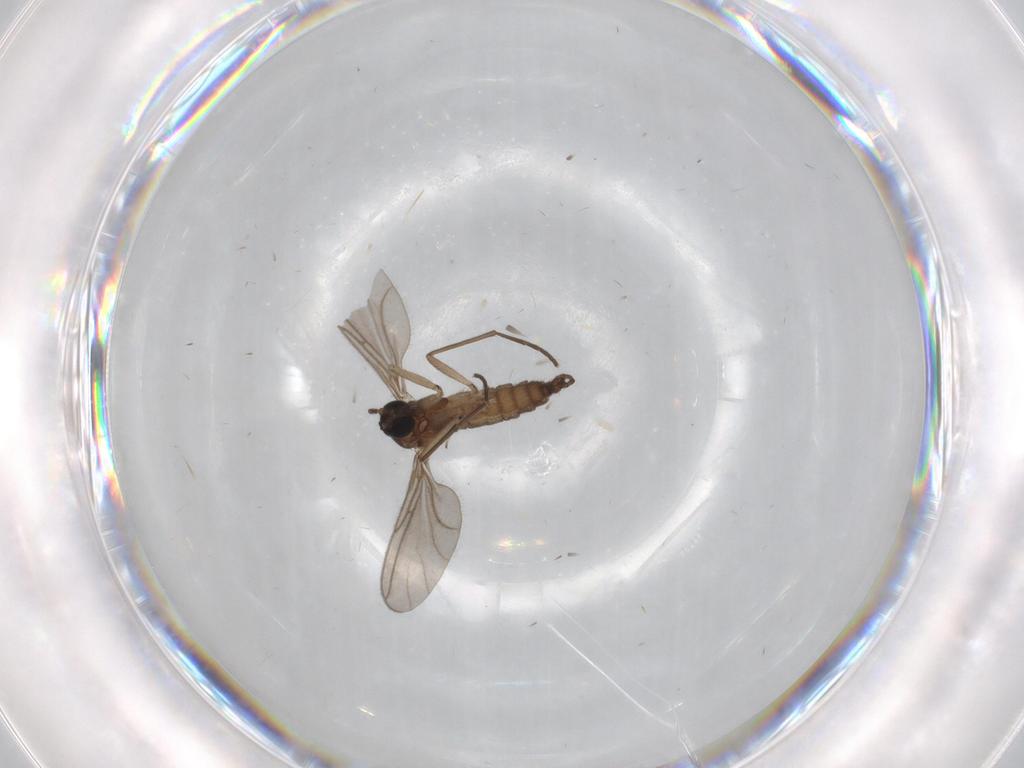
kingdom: Animalia
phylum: Arthropoda
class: Insecta
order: Diptera
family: Sciaridae
